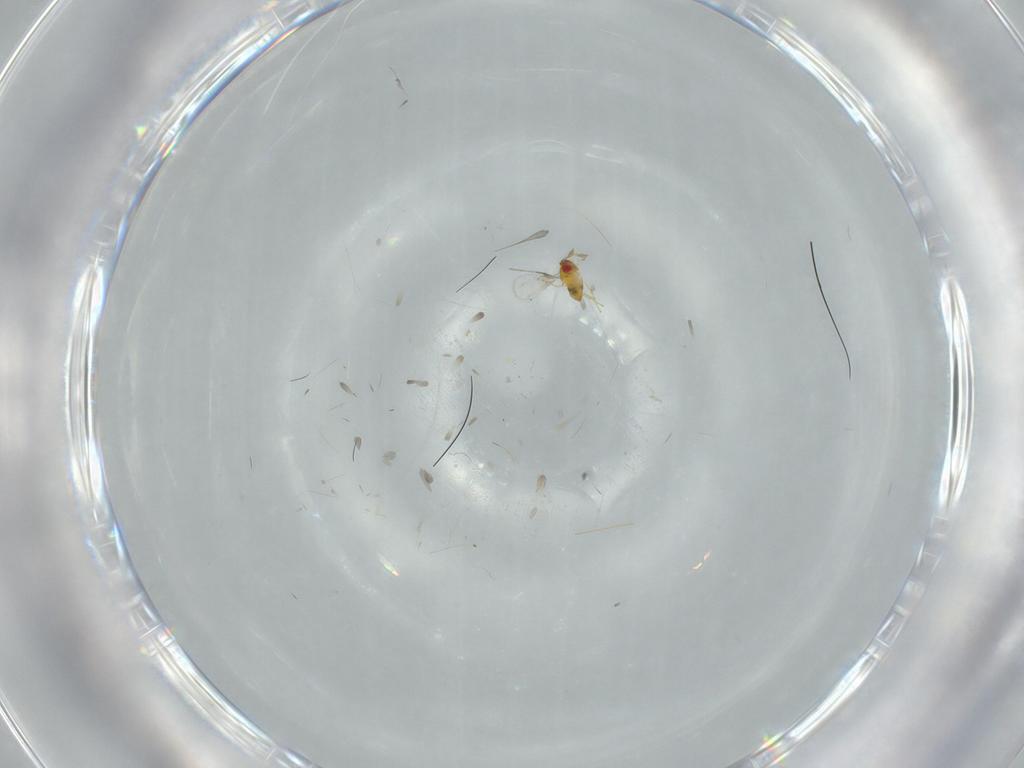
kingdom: Animalia
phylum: Arthropoda
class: Insecta
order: Hymenoptera
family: Trichogrammatidae
